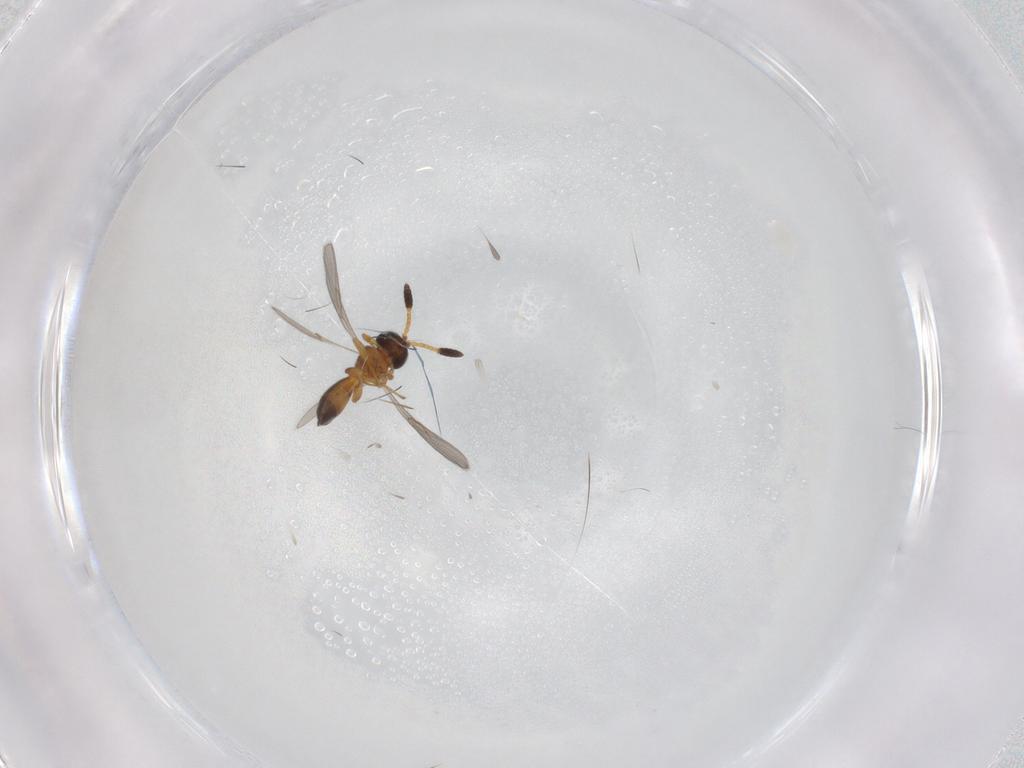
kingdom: Animalia
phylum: Arthropoda
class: Insecta
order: Hymenoptera
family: Scelionidae
